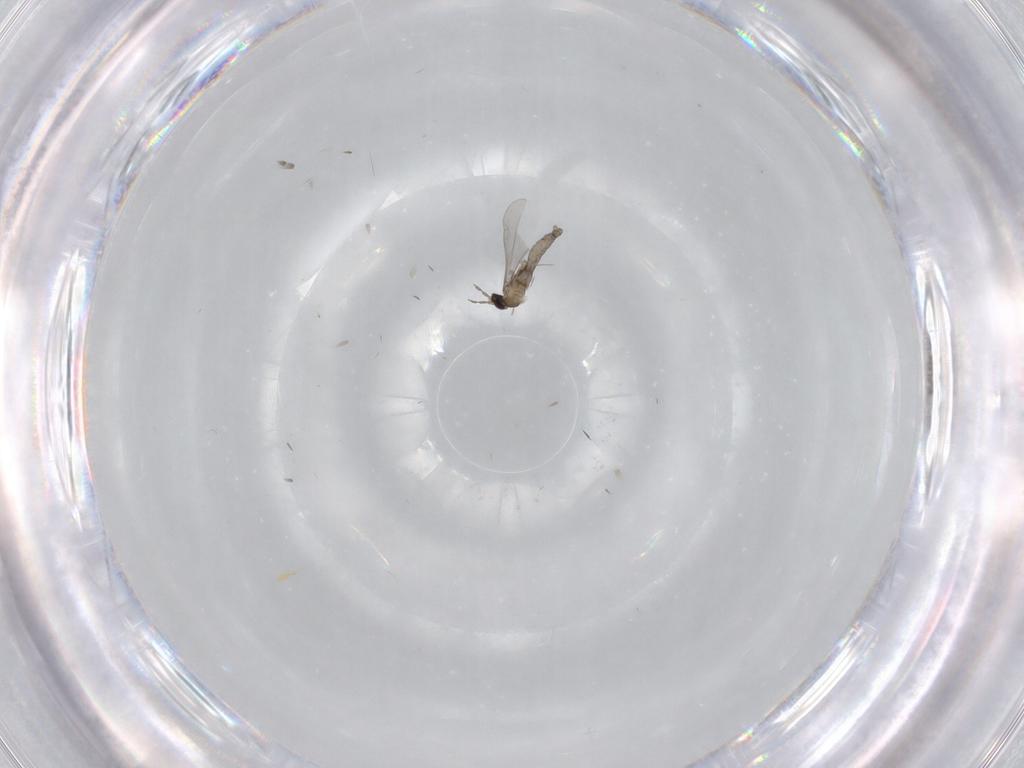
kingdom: Animalia
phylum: Arthropoda
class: Insecta
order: Diptera
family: Cecidomyiidae
